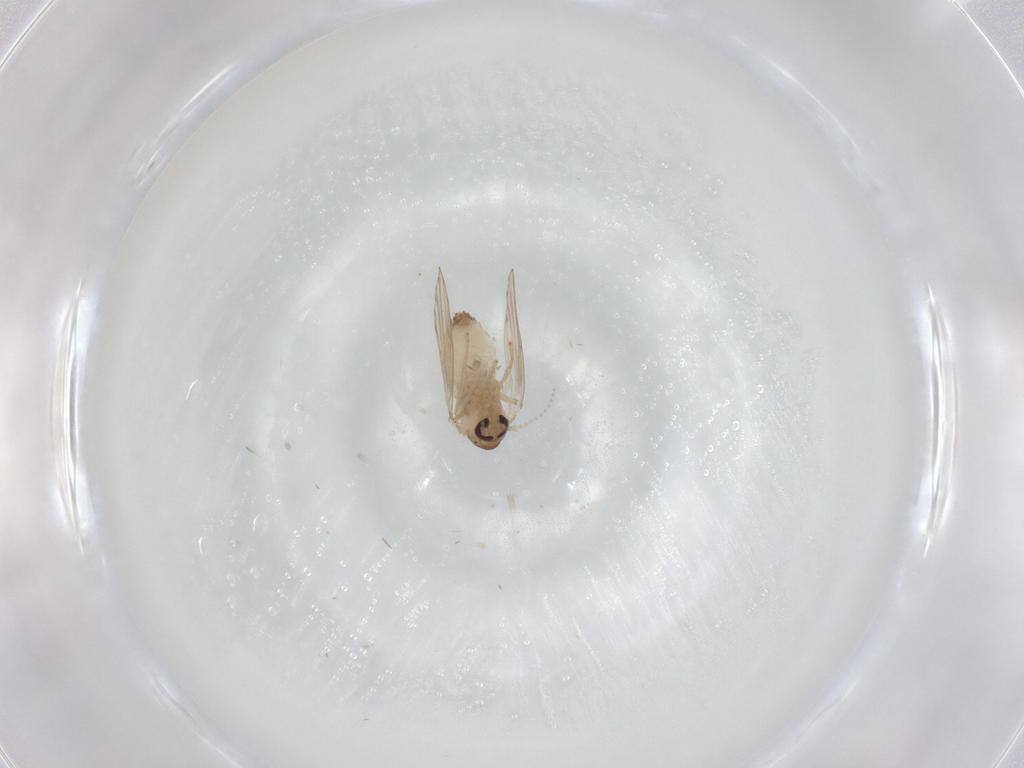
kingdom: Animalia
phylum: Arthropoda
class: Insecta
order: Diptera
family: Psychodidae
